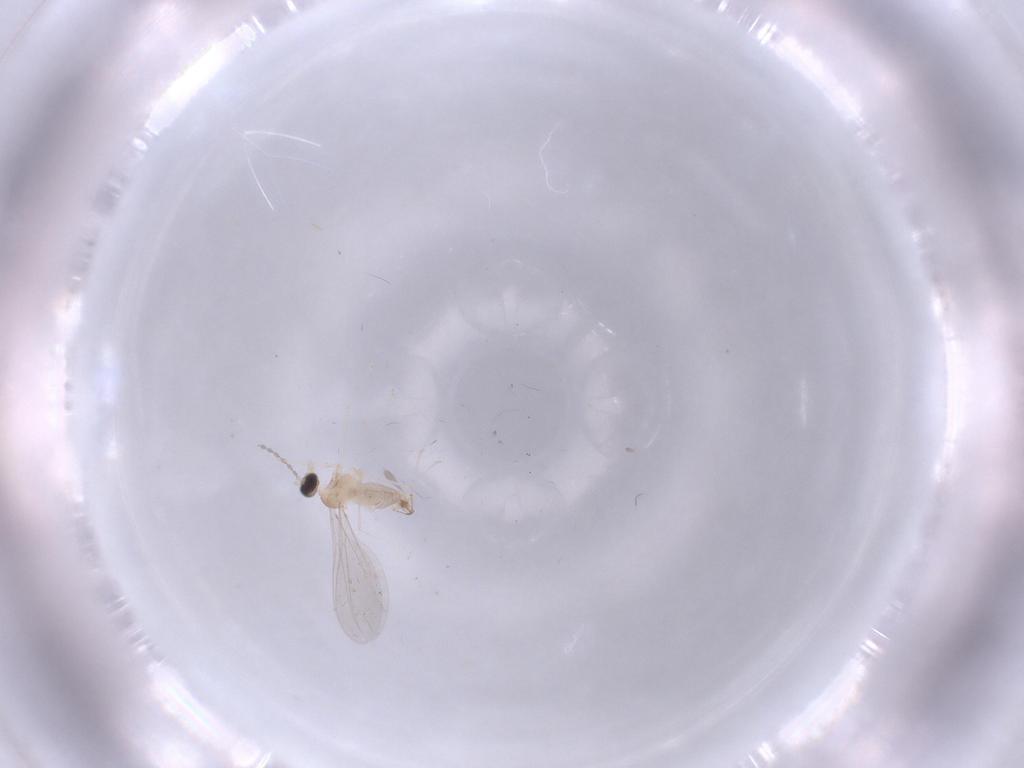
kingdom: Animalia
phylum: Arthropoda
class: Insecta
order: Diptera
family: Sciaridae
